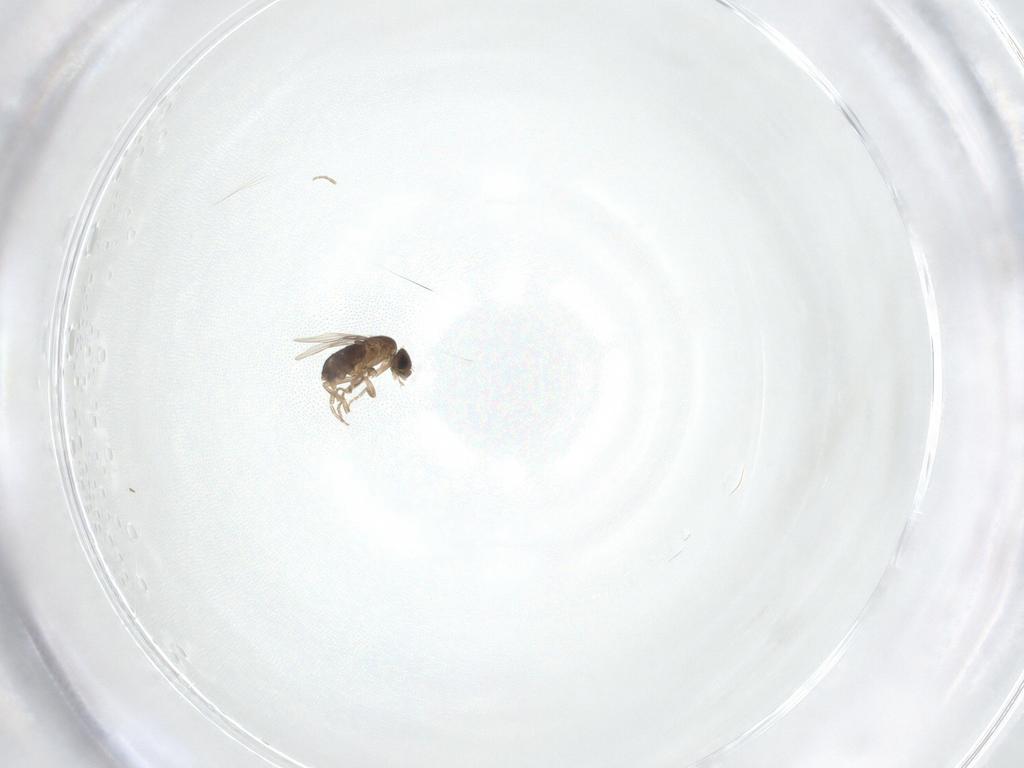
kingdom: Animalia
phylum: Arthropoda
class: Insecta
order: Diptera
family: Phoridae
